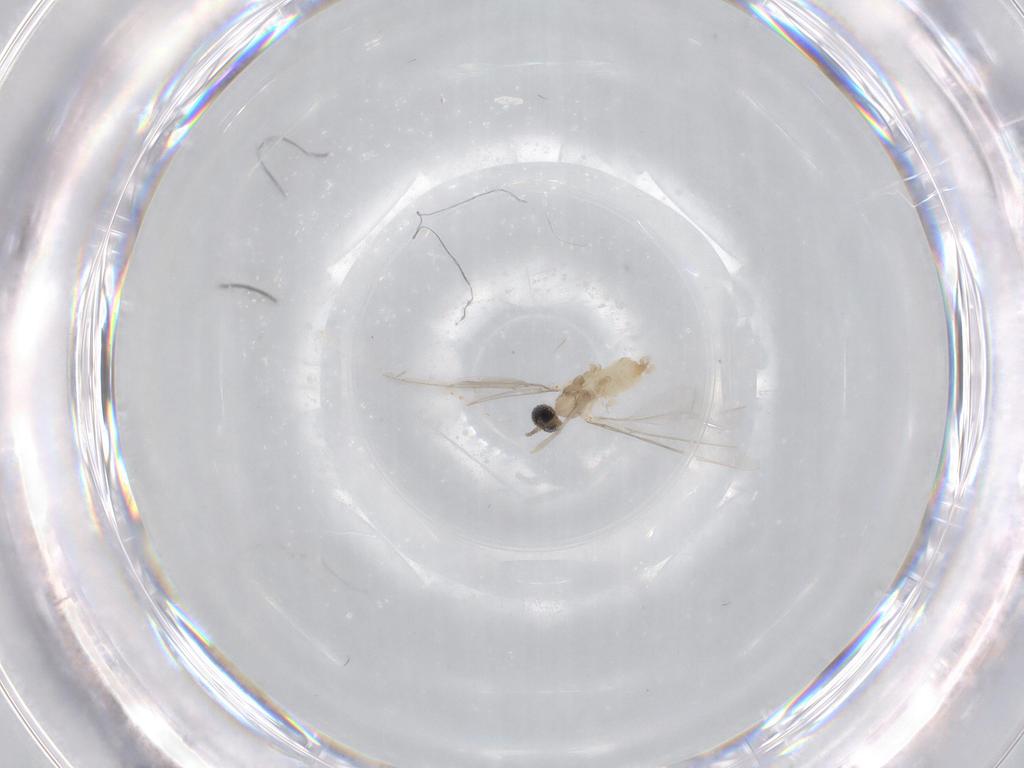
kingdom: Animalia
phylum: Arthropoda
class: Insecta
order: Diptera
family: Cecidomyiidae
